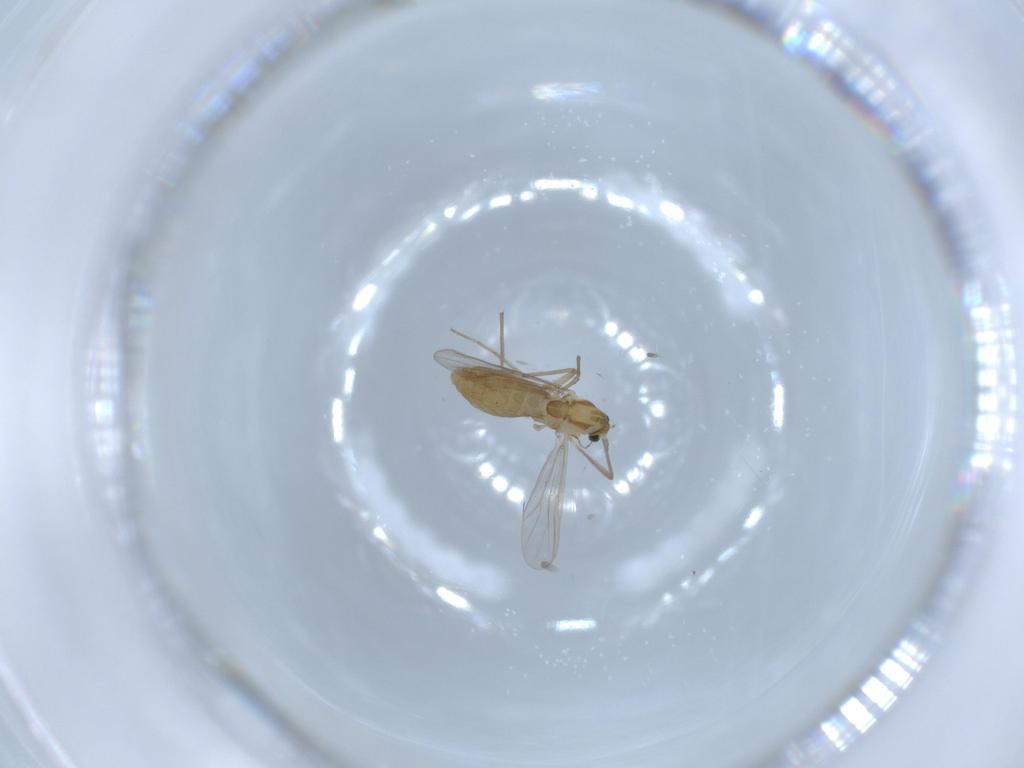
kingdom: Animalia
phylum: Arthropoda
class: Insecta
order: Diptera
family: Chironomidae
